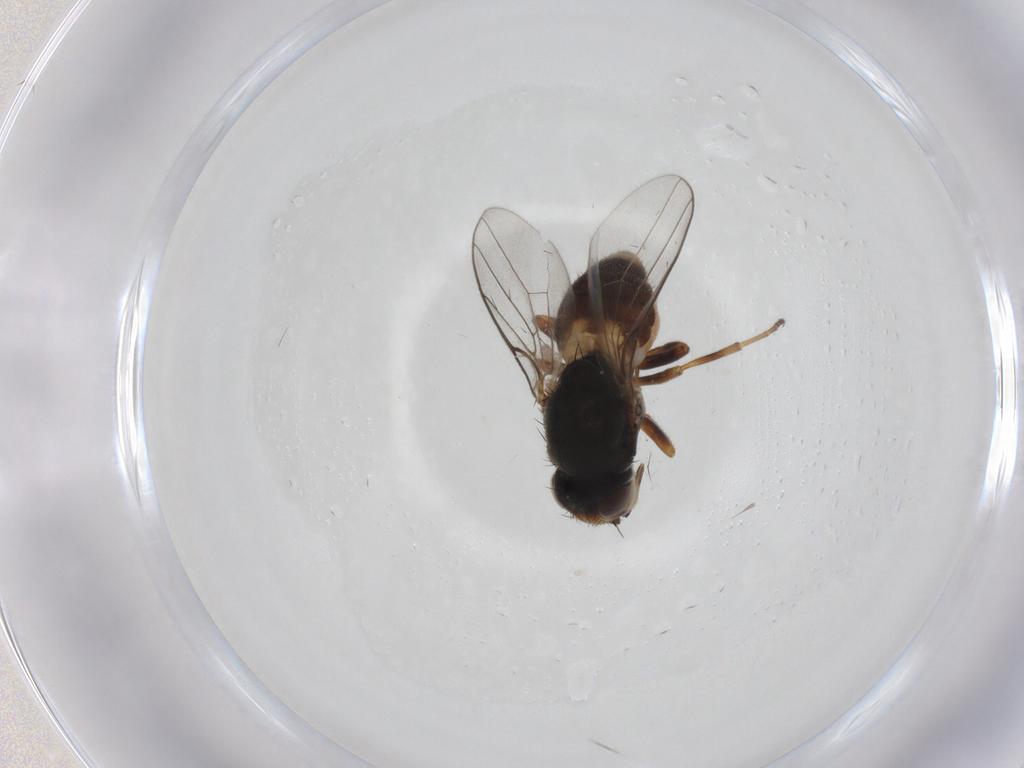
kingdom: Animalia
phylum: Arthropoda
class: Insecta
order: Diptera
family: Chloropidae
